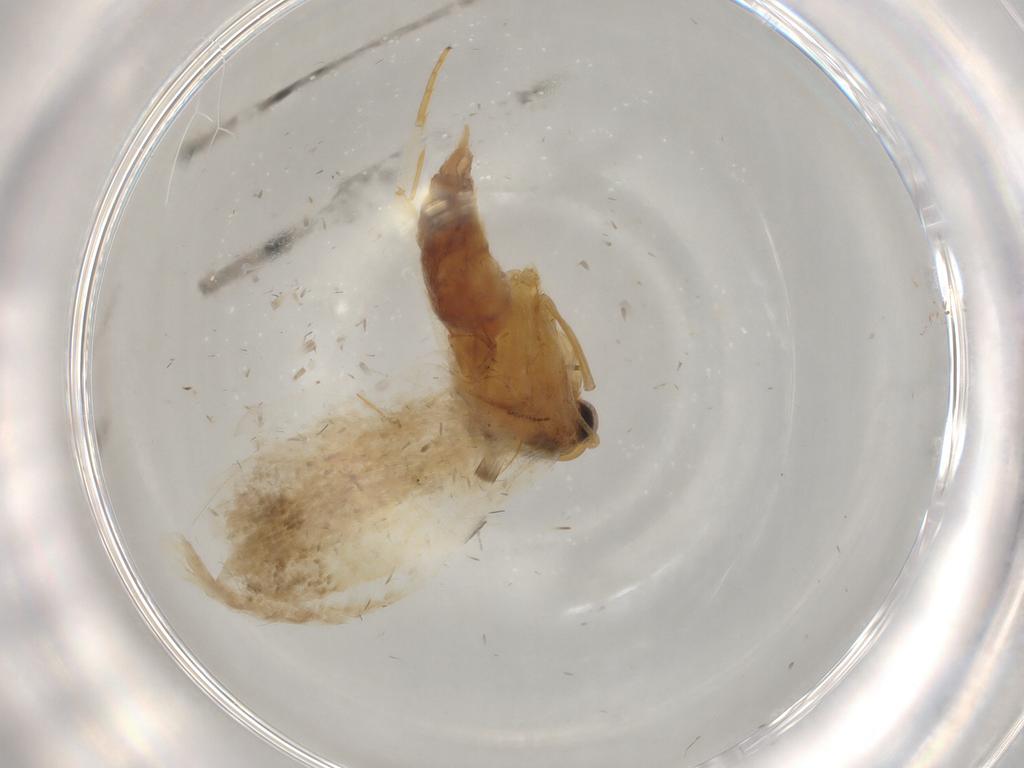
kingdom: Animalia
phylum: Arthropoda
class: Insecta
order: Lepidoptera
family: Depressariidae
